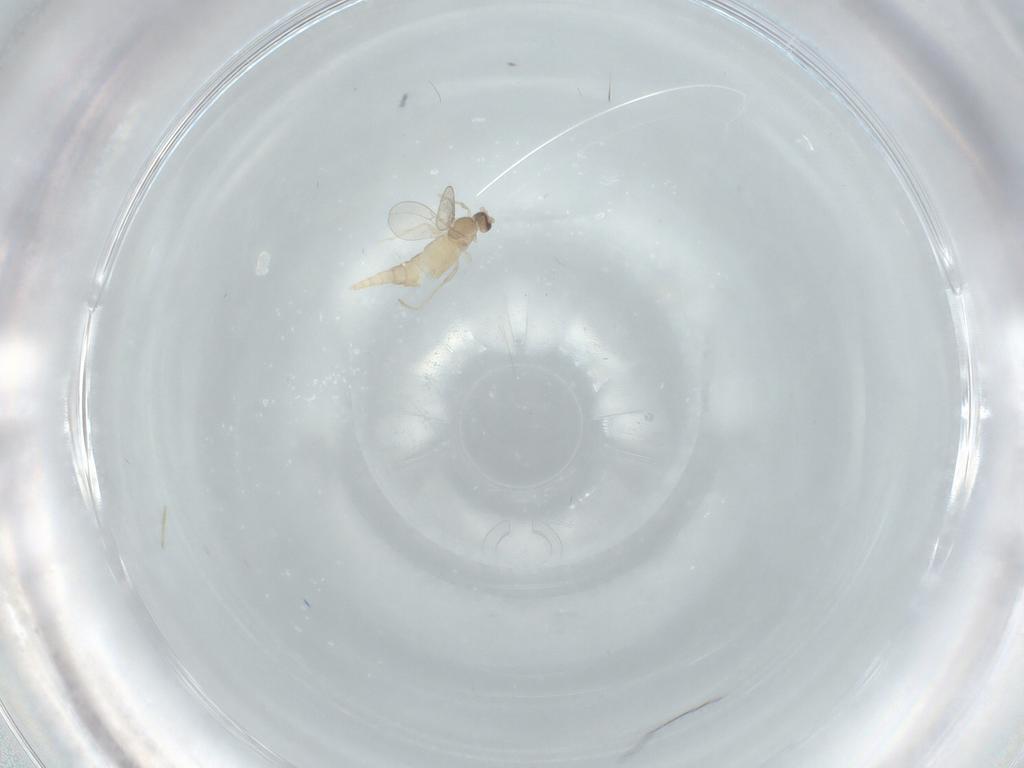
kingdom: Animalia
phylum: Arthropoda
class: Insecta
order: Diptera
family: Cecidomyiidae
